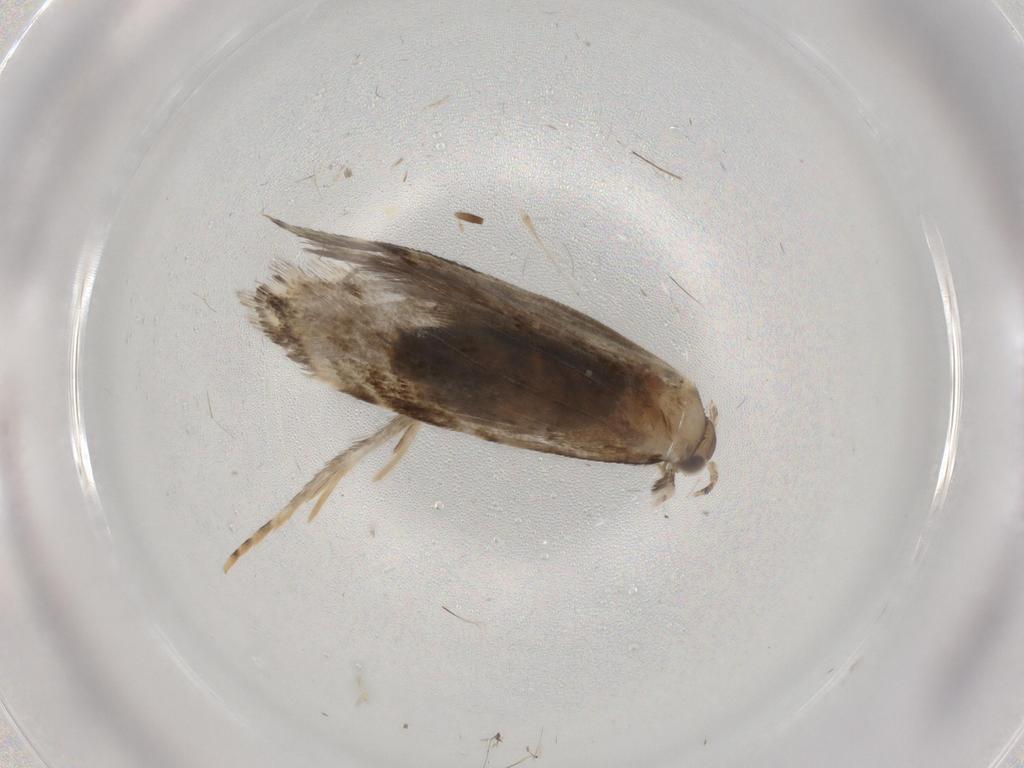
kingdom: Animalia
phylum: Arthropoda
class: Insecta
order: Lepidoptera
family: Tineidae
